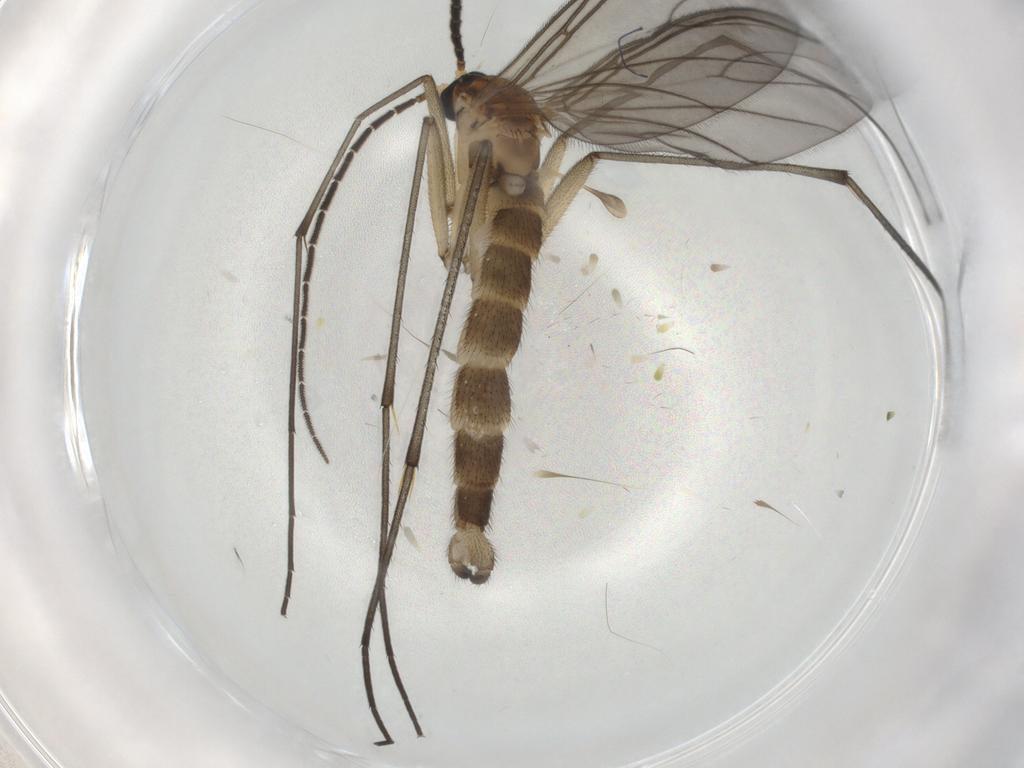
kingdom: Animalia
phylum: Arthropoda
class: Insecta
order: Diptera
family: Sciaridae
